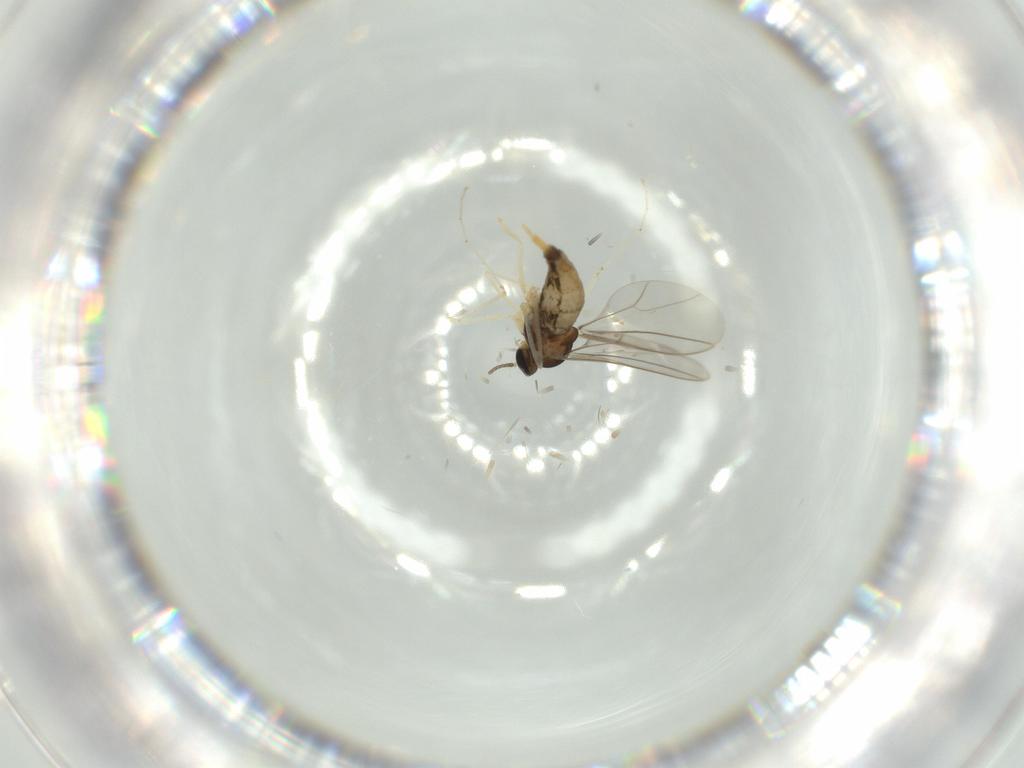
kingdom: Animalia
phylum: Arthropoda
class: Insecta
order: Diptera
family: Cecidomyiidae
